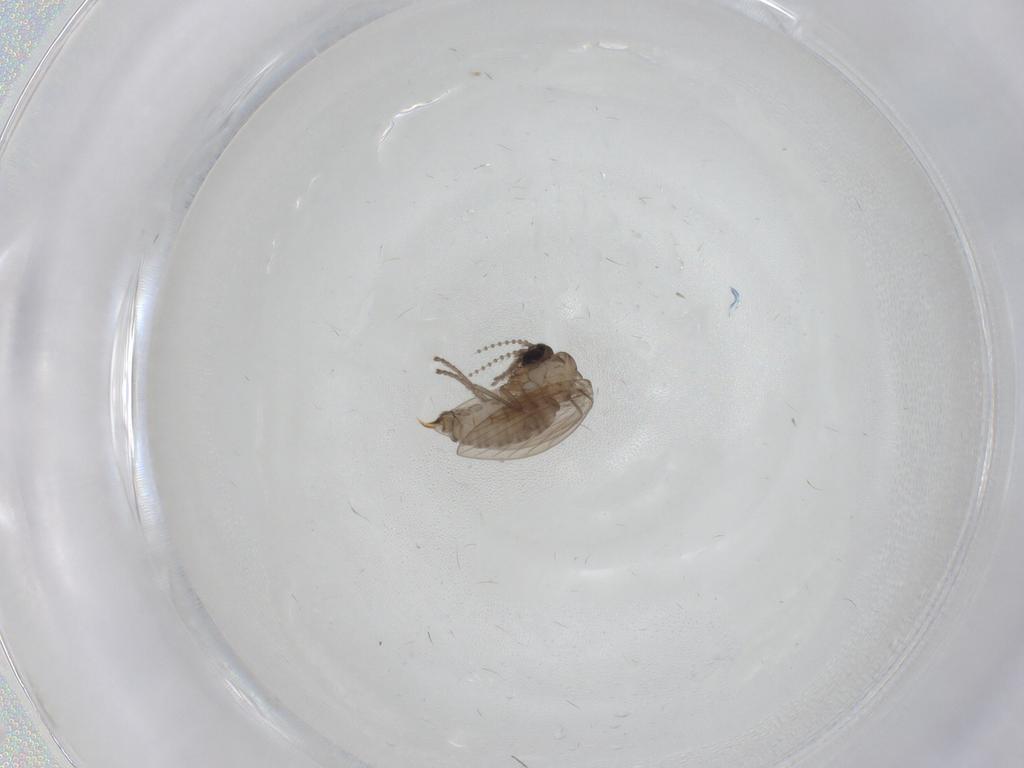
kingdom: Animalia
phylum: Arthropoda
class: Insecta
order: Diptera
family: Psychodidae
